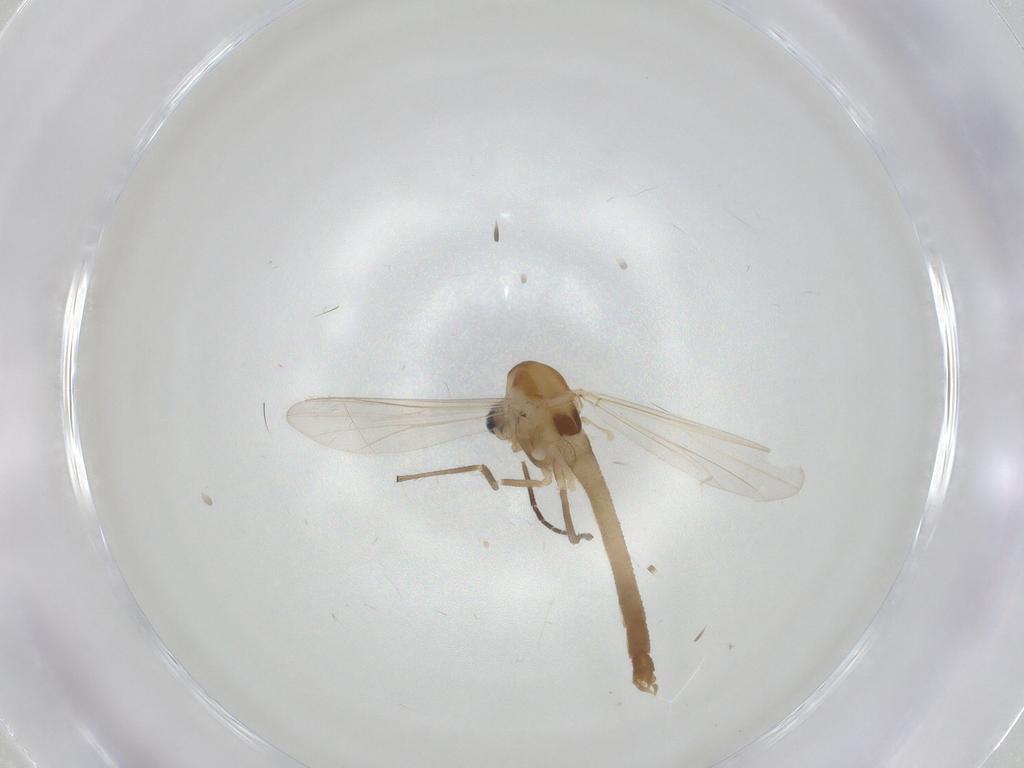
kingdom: Animalia
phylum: Arthropoda
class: Insecta
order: Diptera
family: Chironomidae
